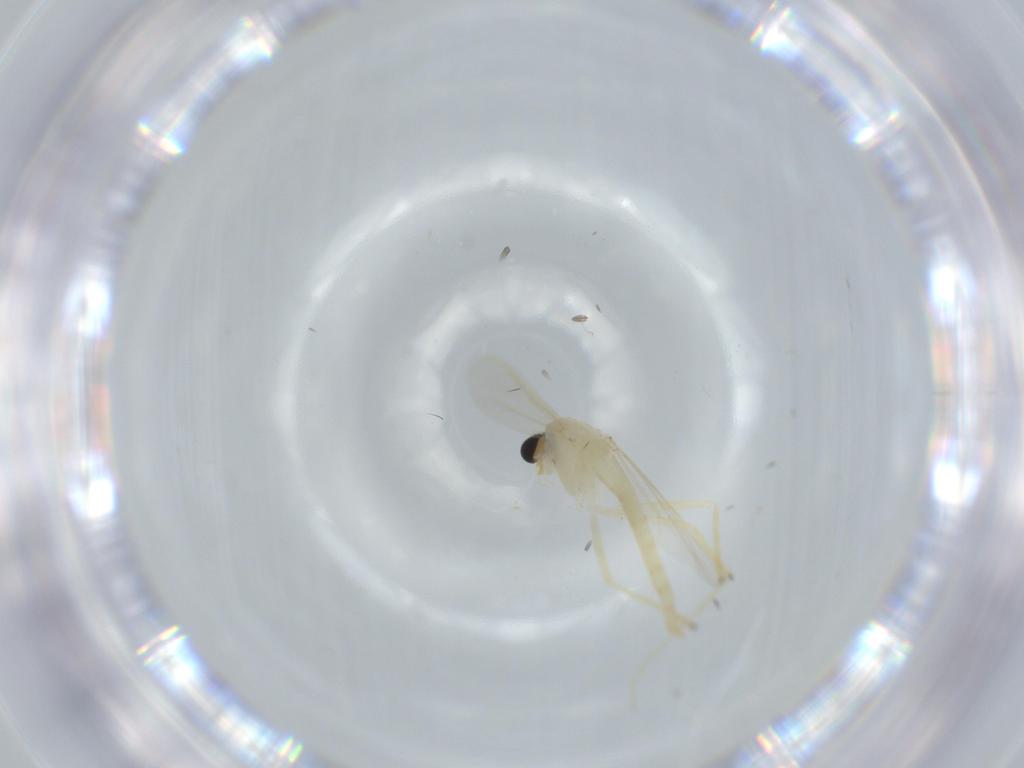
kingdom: Animalia
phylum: Arthropoda
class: Insecta
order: Diptera
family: Chironomidae
